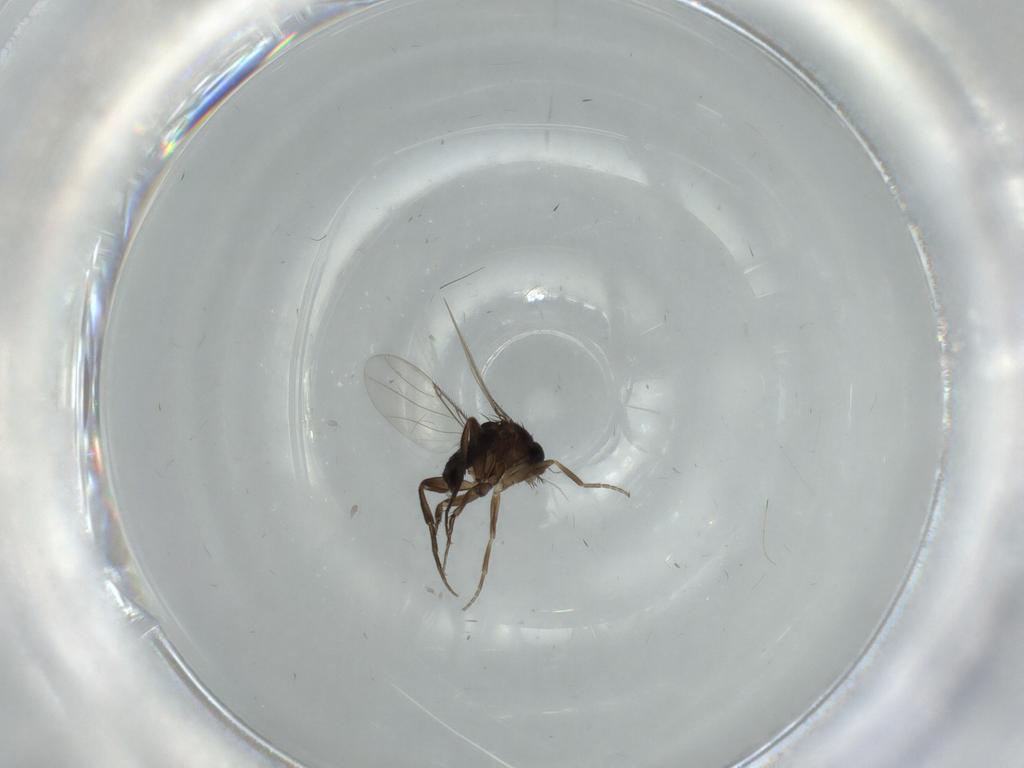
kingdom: Animalia
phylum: Arthropoda
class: Insecta
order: Diptera
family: Phoridae
